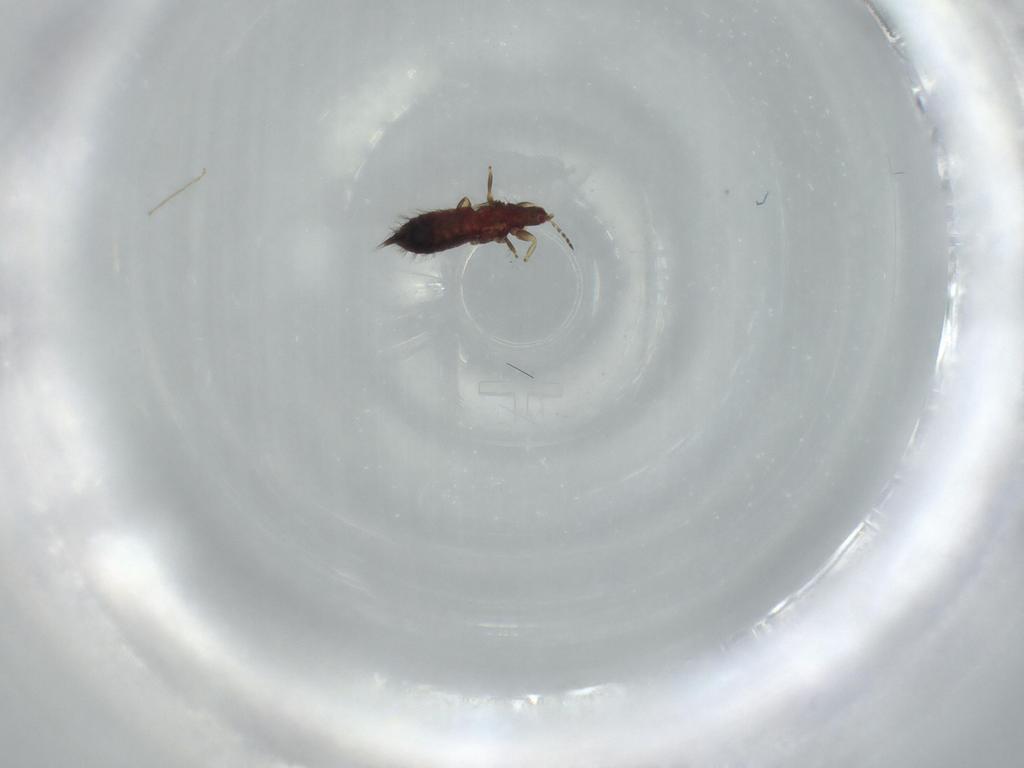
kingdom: Animalia
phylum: Arthropoda
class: Insecta
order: Thysanoptera
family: Phlaeothripidae
